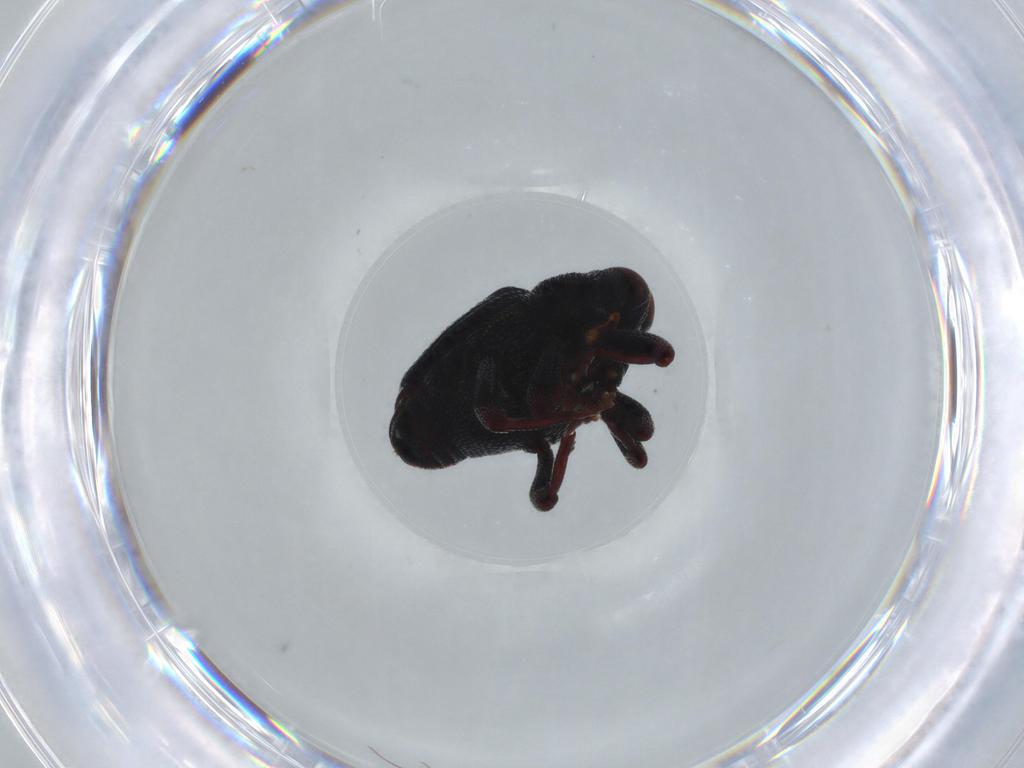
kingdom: Animalia
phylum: Arthropoda
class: Insecta
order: Coleoptera
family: Curculionidae
